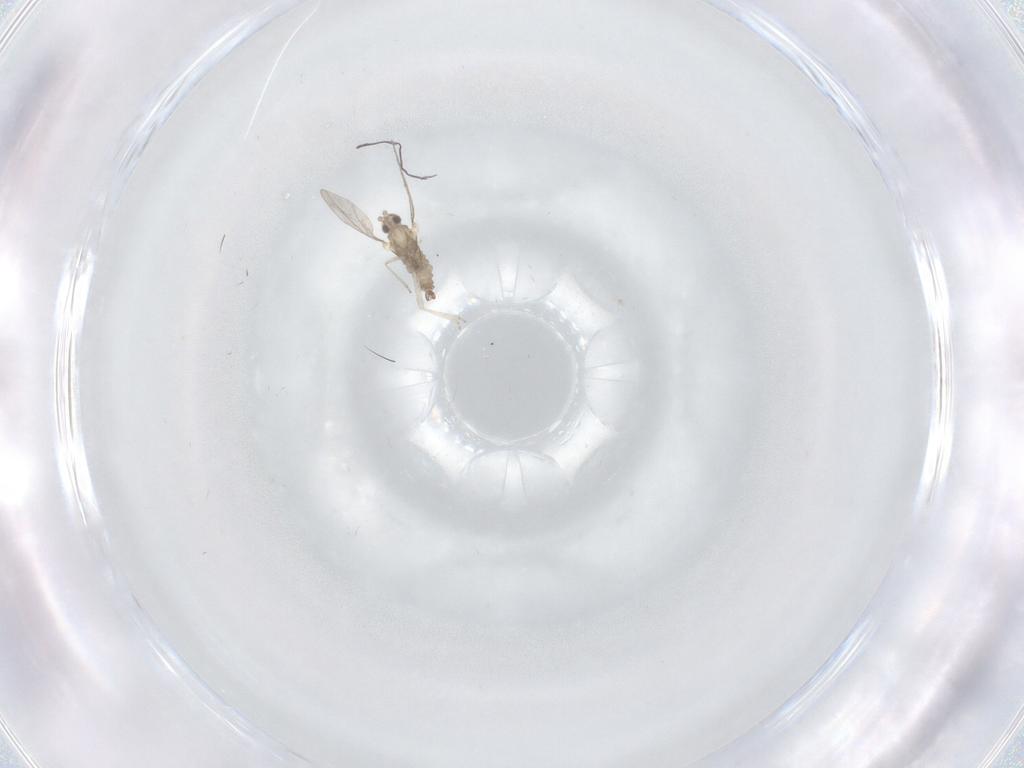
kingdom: Animalia
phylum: Arthropoda
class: Insecta
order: Diptera
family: Cecidomyiidae
